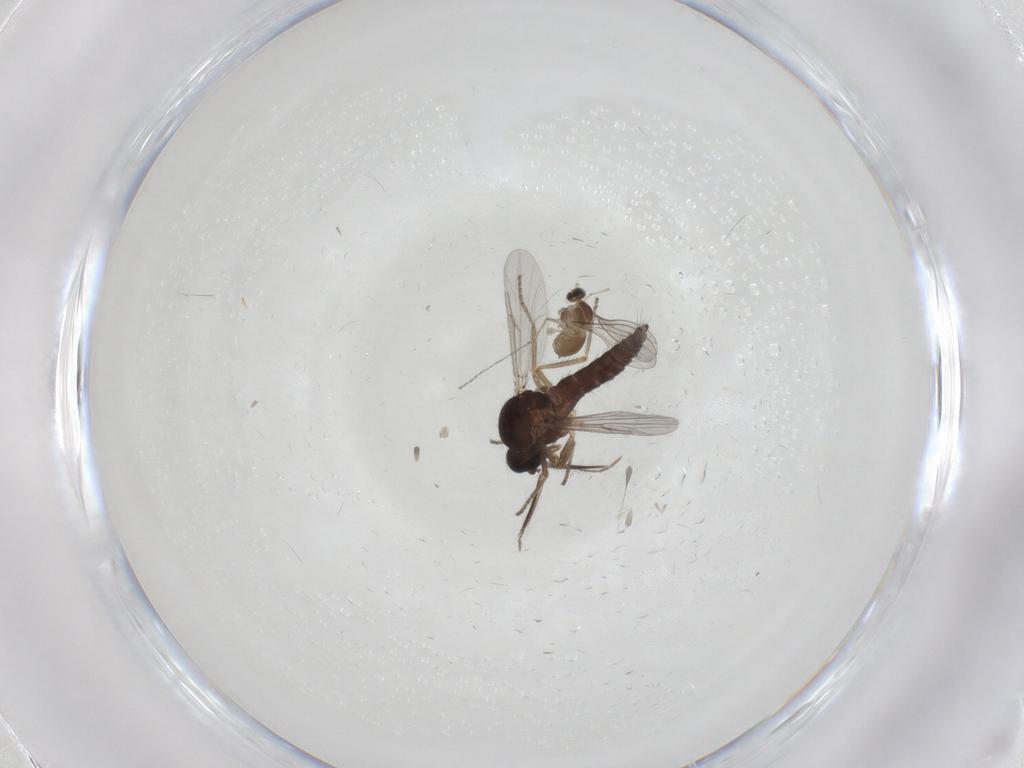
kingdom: Animalia
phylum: Arthropoda
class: Insecta
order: Diptera
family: Ceratopogonidae
